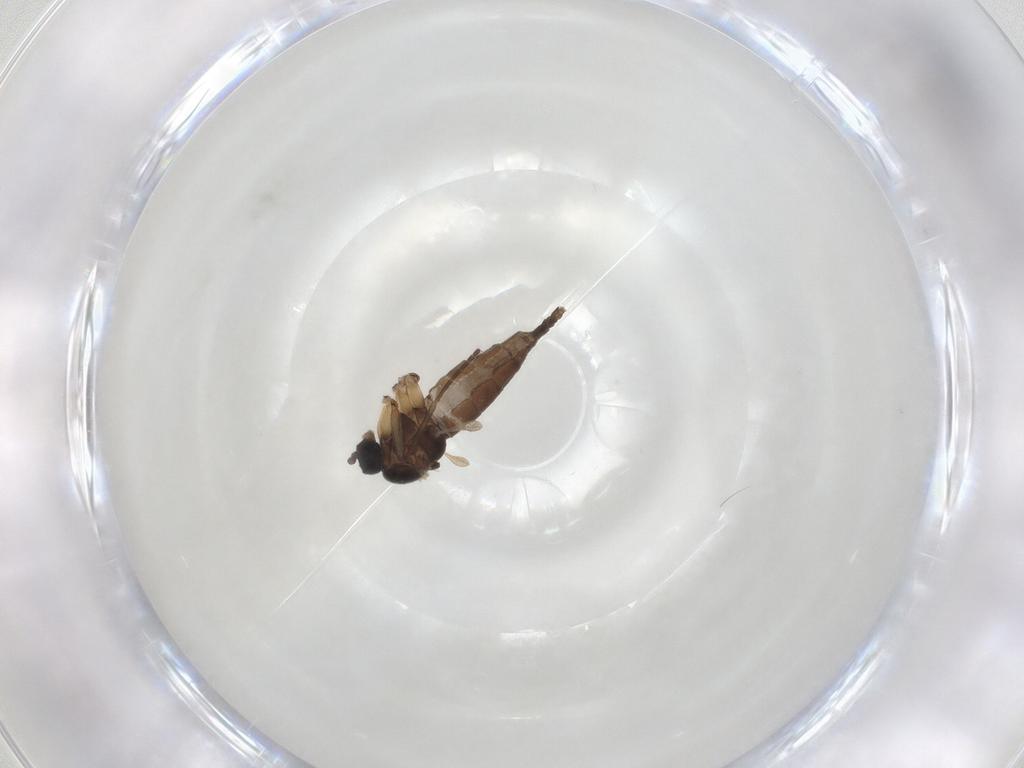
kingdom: Animalia
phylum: Arthropoda
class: Insecta
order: Diptera
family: Sciaridae
